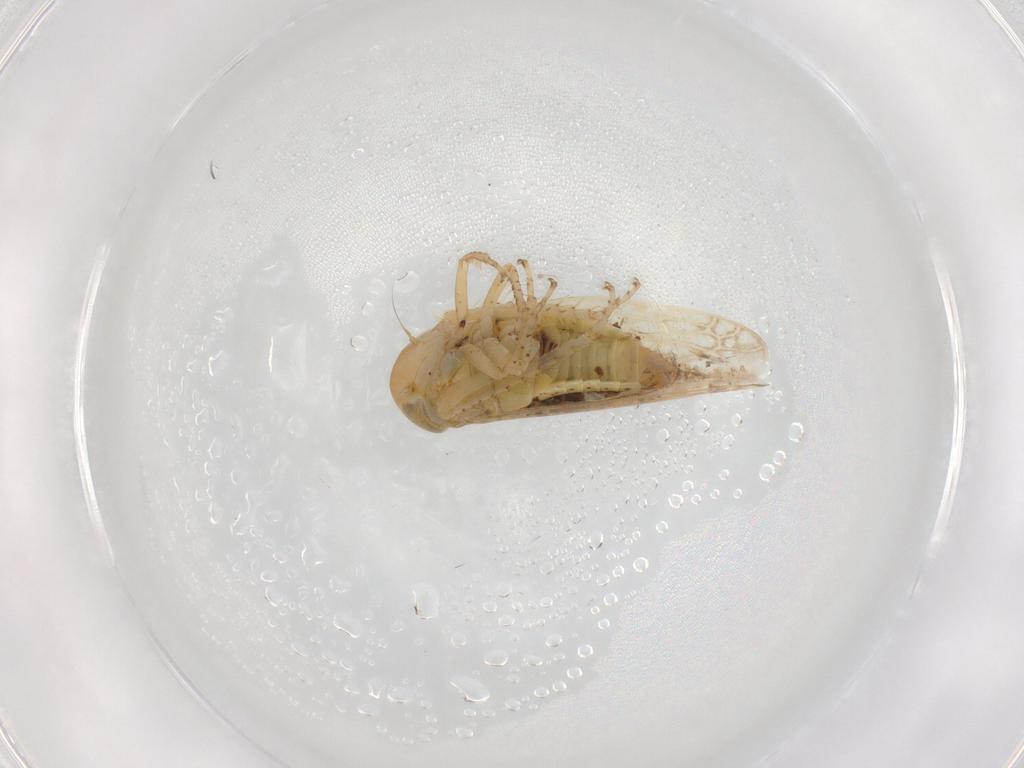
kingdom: Animalia
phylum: Arthropoda
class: Insecta
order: Hemiptera
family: Cicadellidae
